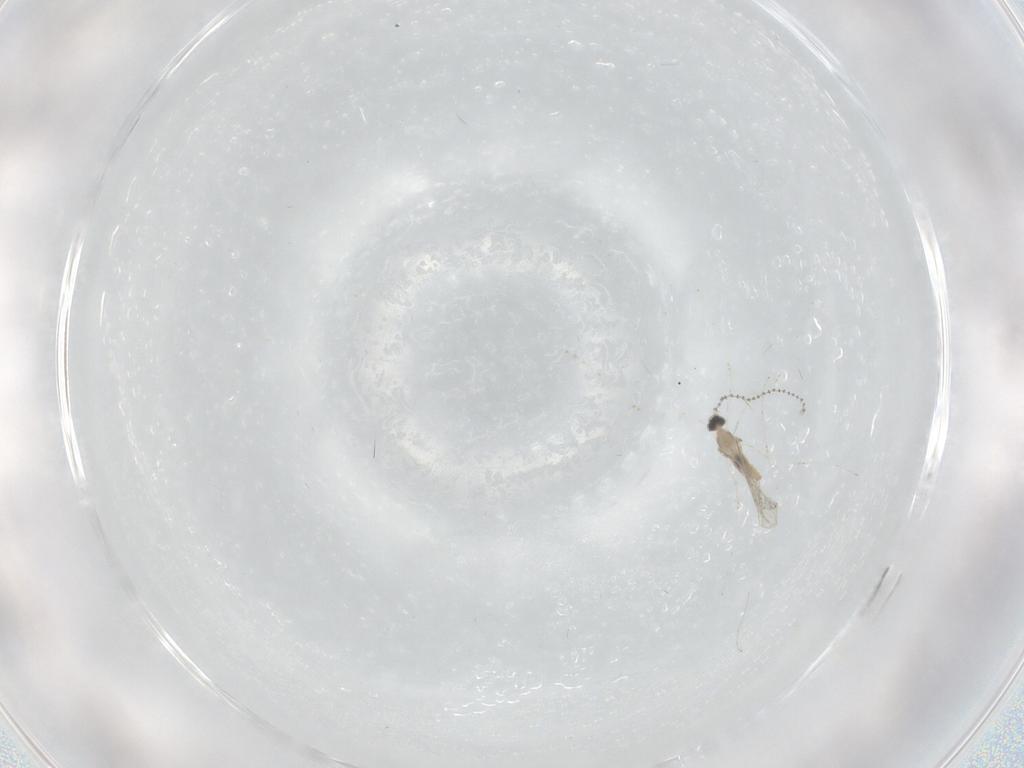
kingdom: Animalia
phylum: Arthropoda
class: Insecta
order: Diptera
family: Cecidomyiidae
